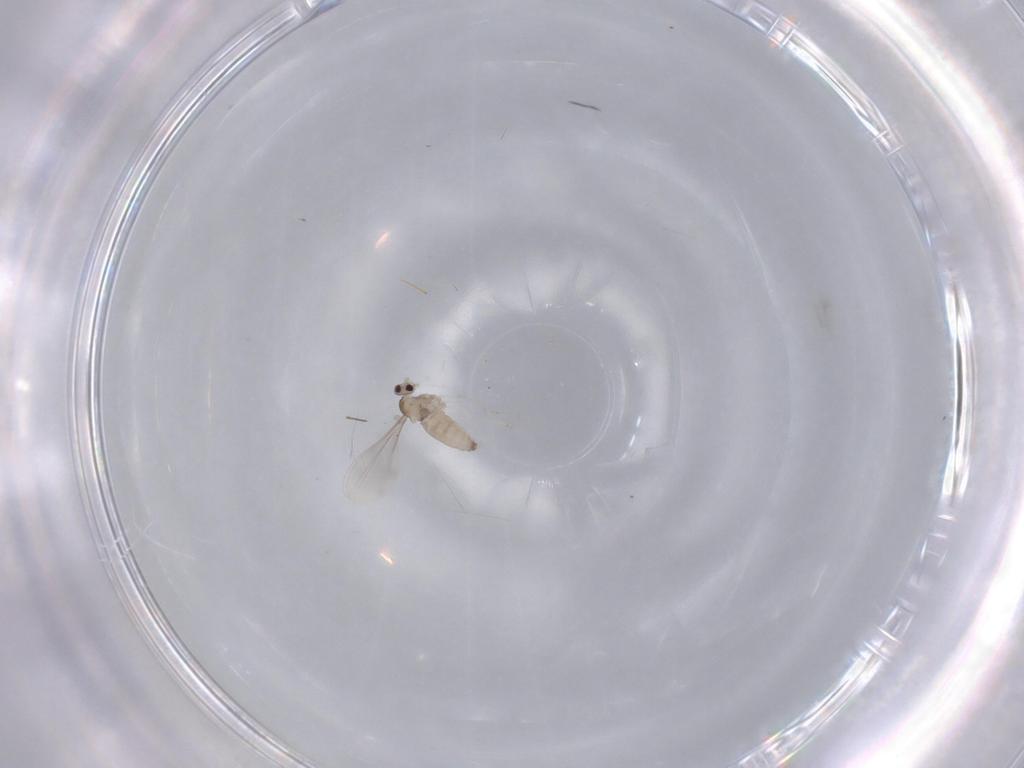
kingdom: Animalia
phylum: Arthropoda
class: Insecta
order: Diptera
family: Cecidomyiidae
